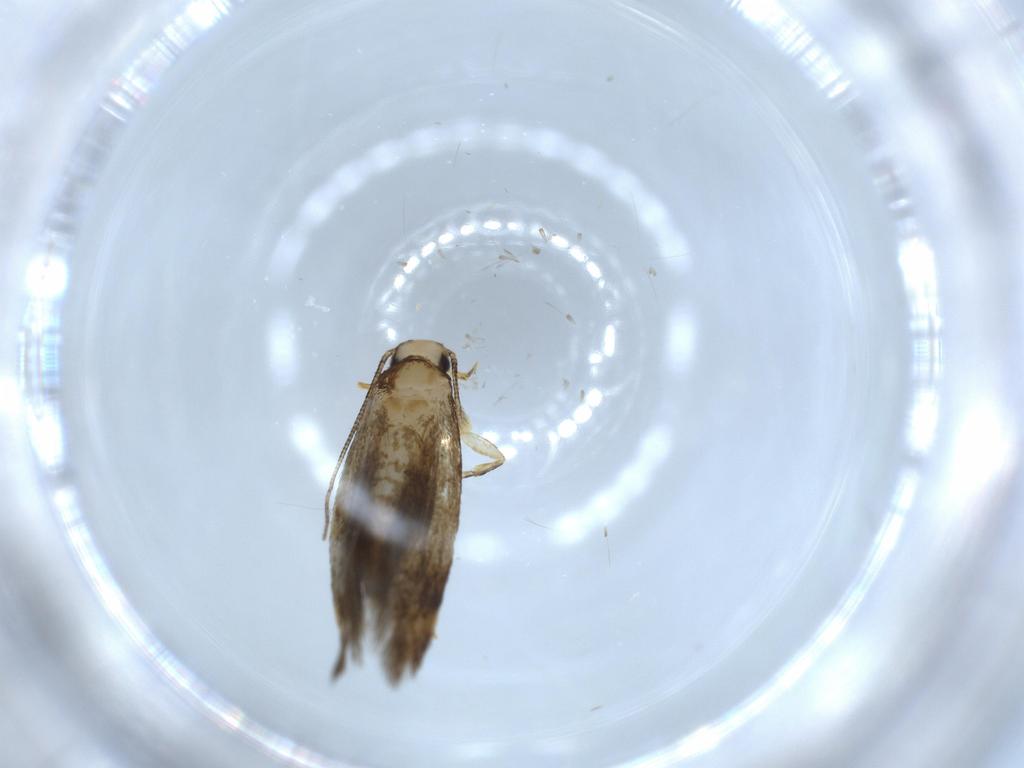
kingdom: Animalia
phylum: Arthropoda
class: Insecta
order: Lepidoptera
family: Tineidae
